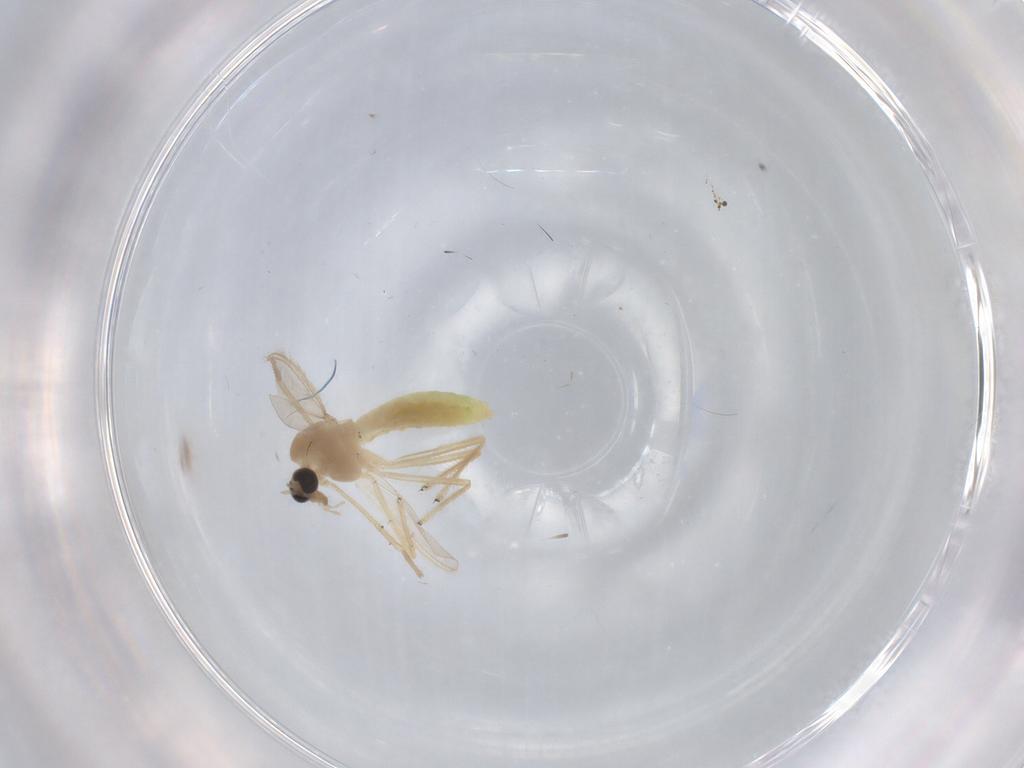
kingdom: Animalia
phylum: Arthropoda
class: Insecta
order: Diptera
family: Chironomidae
